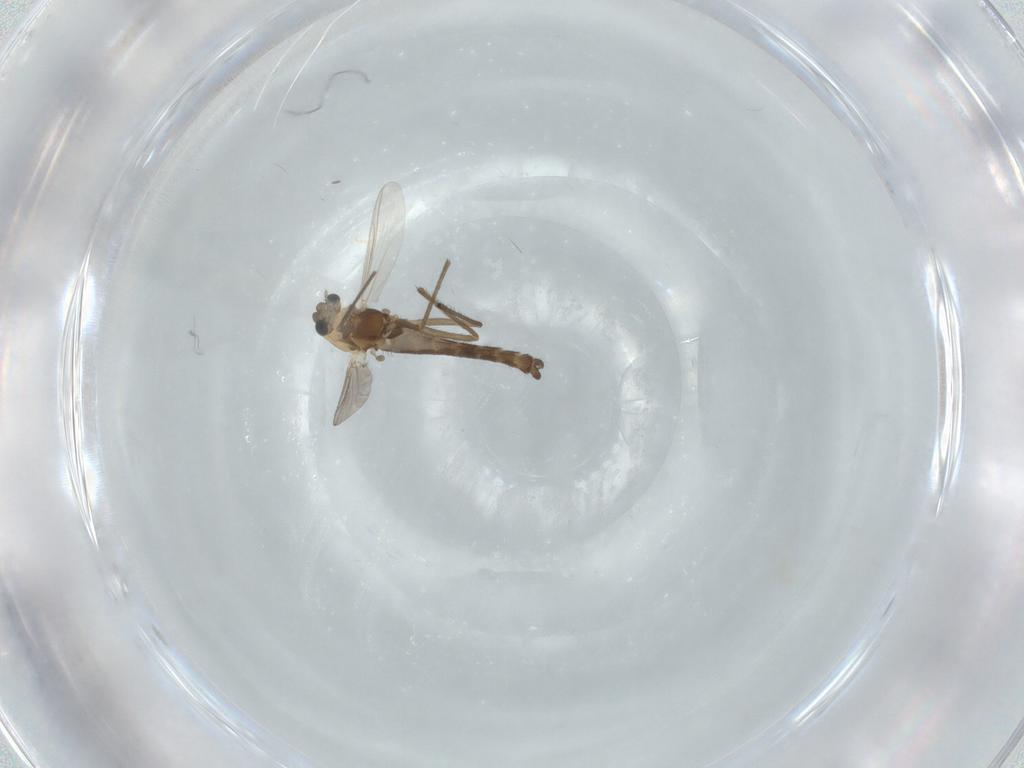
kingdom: Animalia
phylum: Arthropoda
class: Insecta
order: Diptera
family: Chironomidae
